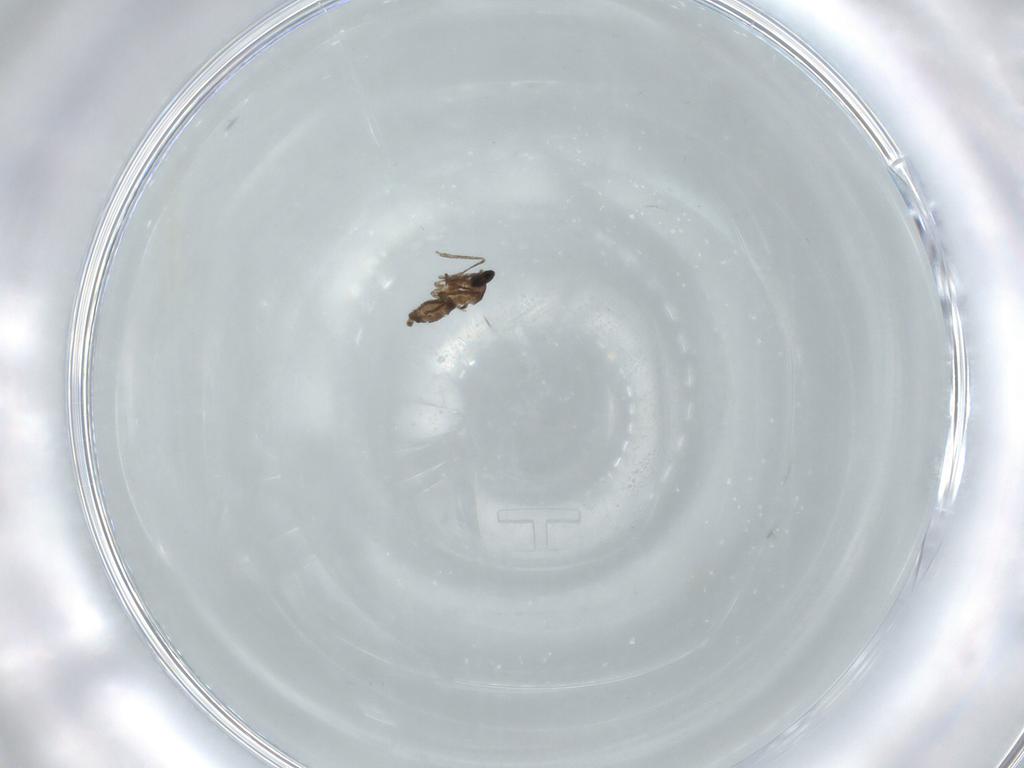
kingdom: Animalia
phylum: Arthropoda
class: Insecta
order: Diptera
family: Cecidomyiidae
